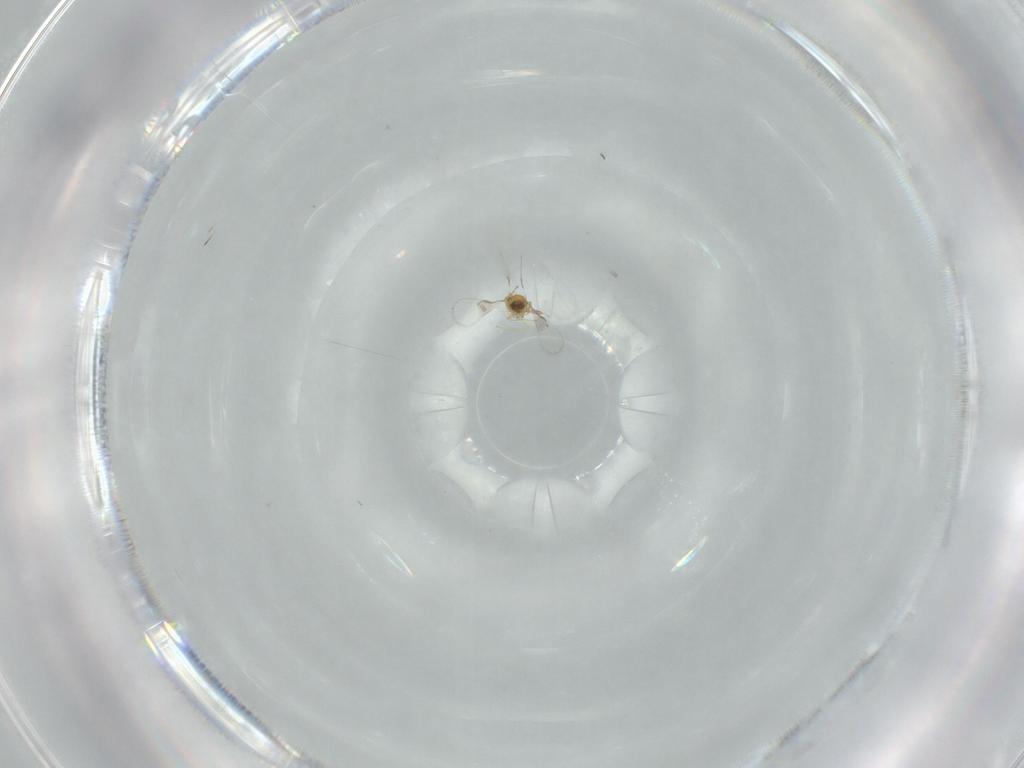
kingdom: Animalia
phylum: Arthropoda
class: Insecta
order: Hymenoptera
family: Trichogrammatidae
